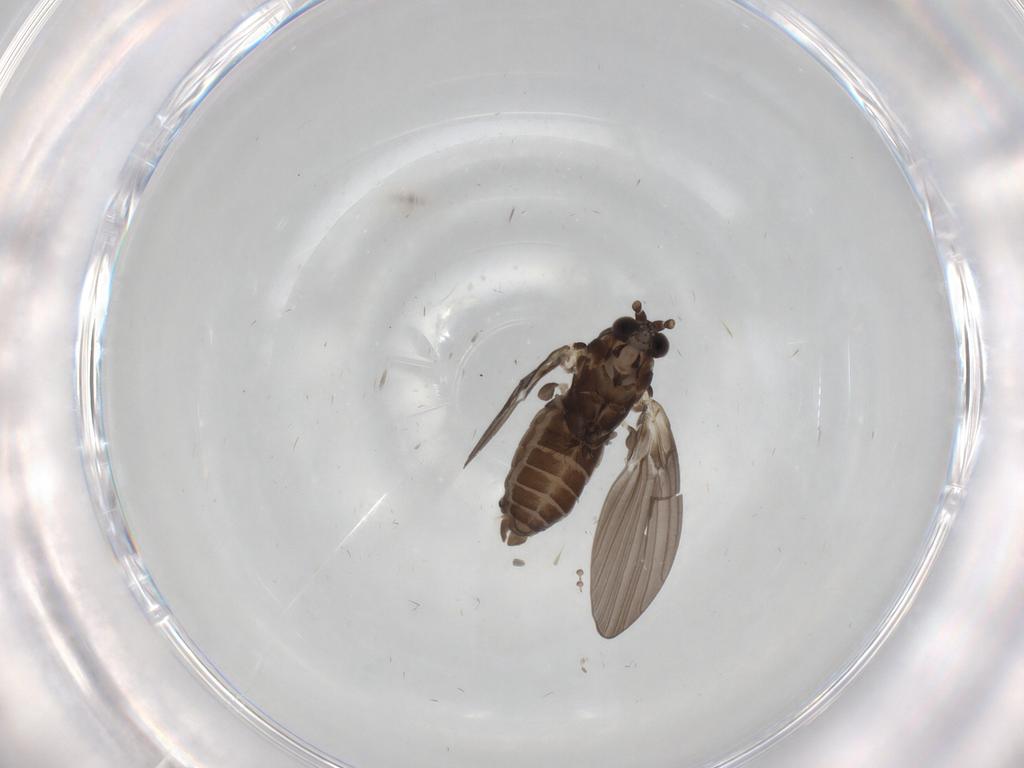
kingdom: Animalia
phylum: Arthropoda
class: Insecta
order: Diptera
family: Psychodidae
